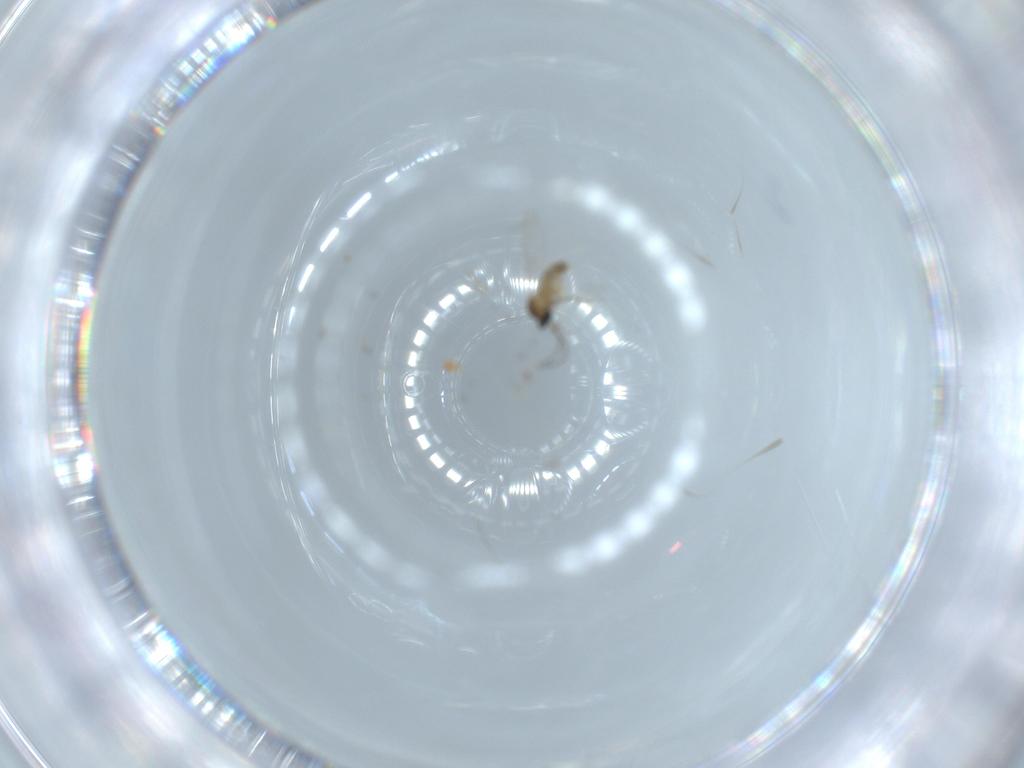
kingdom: Animalia
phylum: Arthropoda
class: Insecta
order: Diptera
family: Cecidomyiidae
